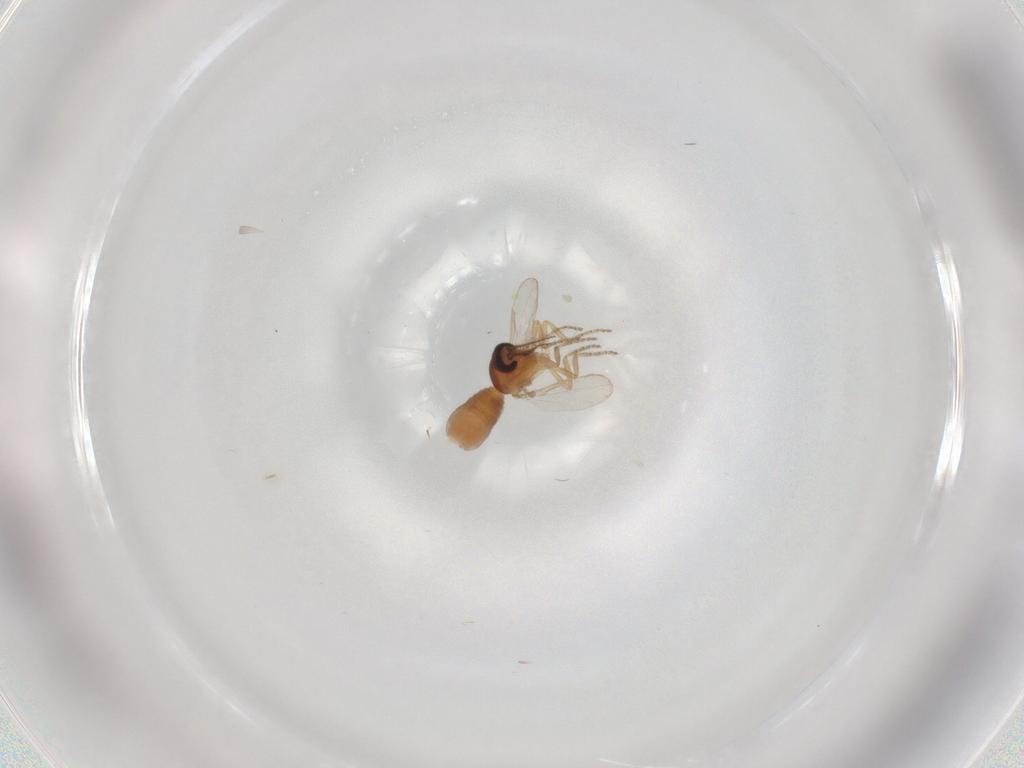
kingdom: Animalia
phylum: Arthropoda
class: Insecta
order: Diptera
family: Ceratopogonidae
